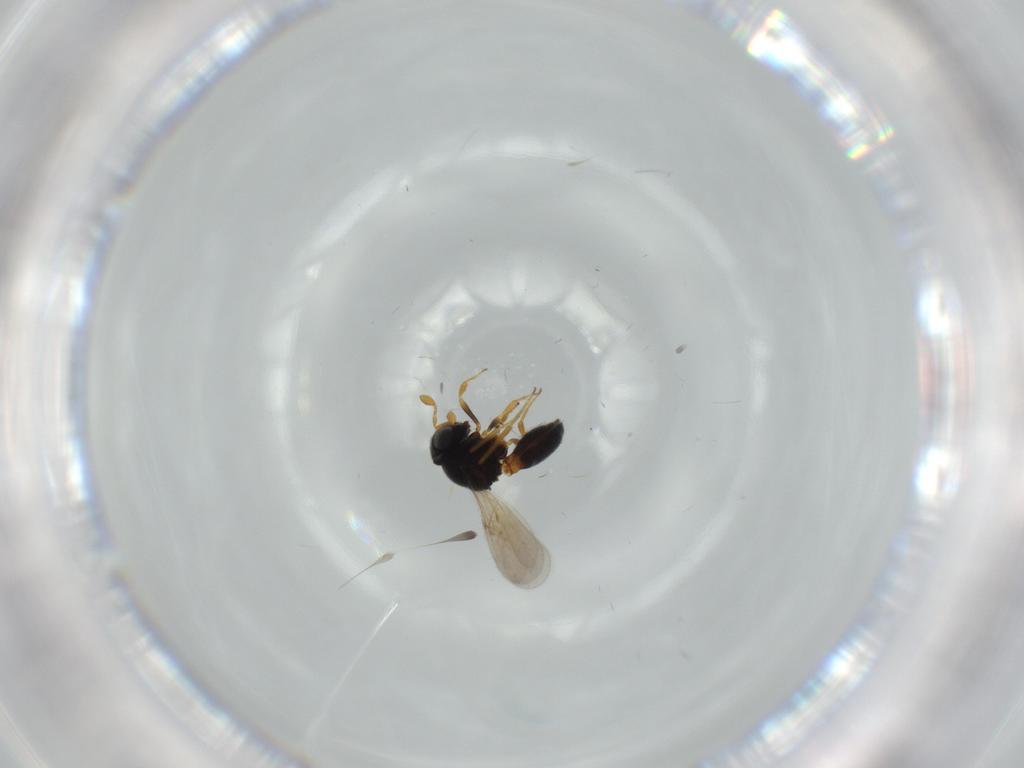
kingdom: Animalia
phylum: Arthropoda
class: Insecta
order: Hymenoptera
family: Scelionidae
